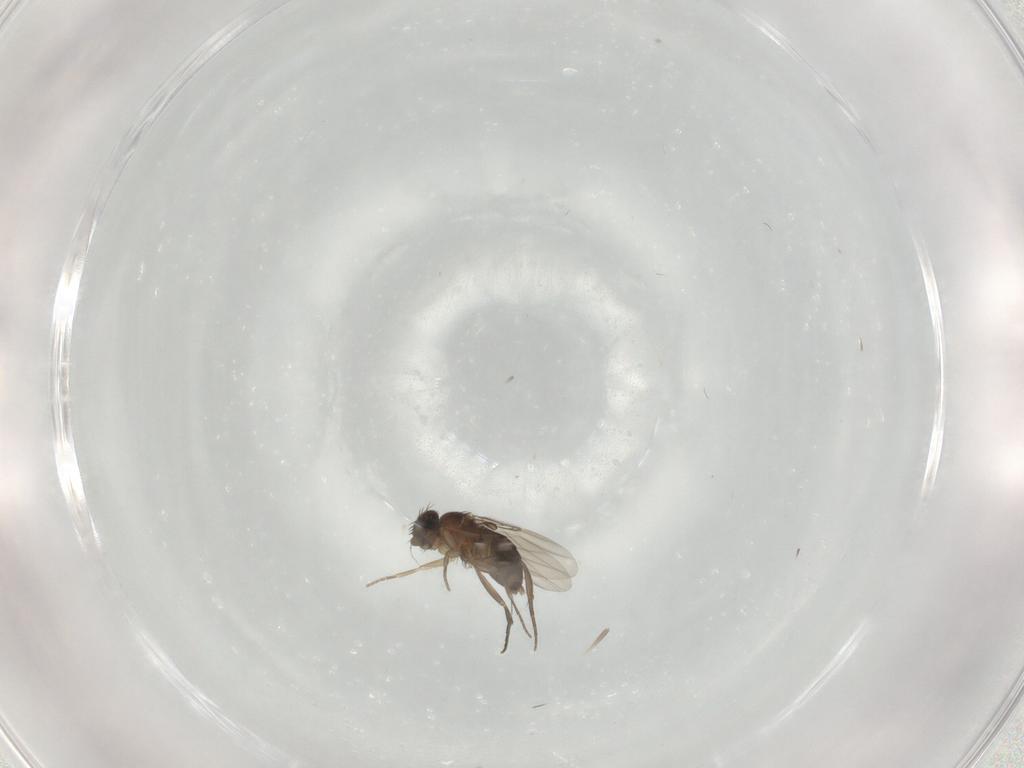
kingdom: Animalia
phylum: Arthropoda
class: Insecta
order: Diptera
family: Phoridae
